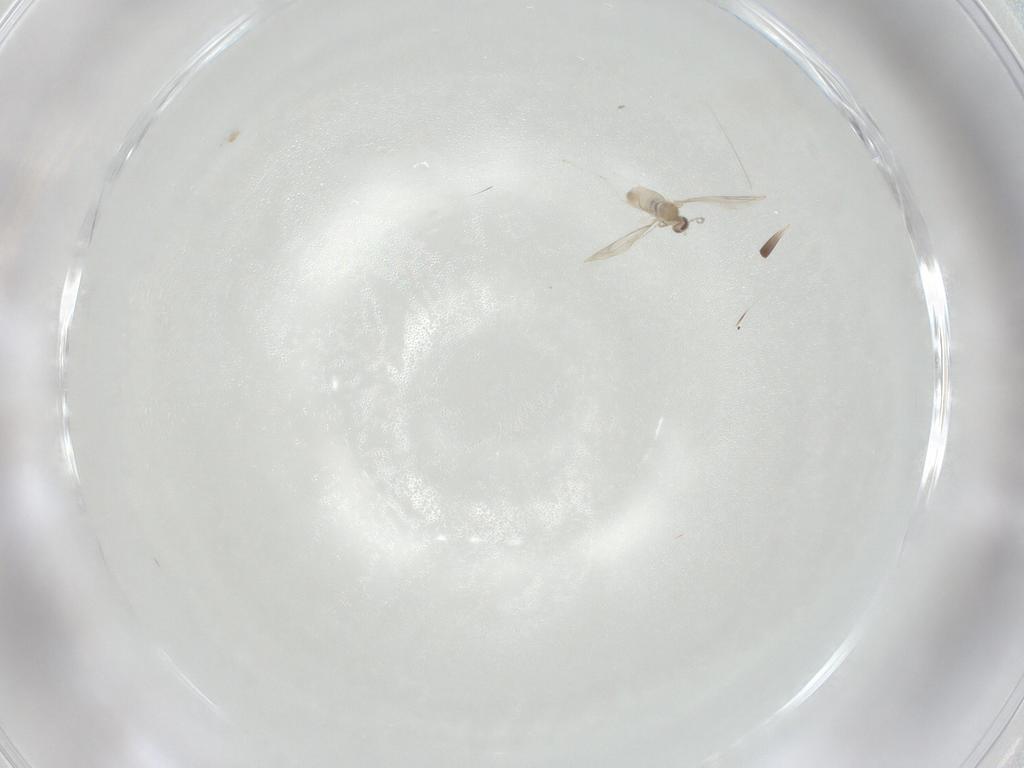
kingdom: Animalia
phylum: Arthropoda
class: Insecta
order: Diptera
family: Cecidomyiidae
